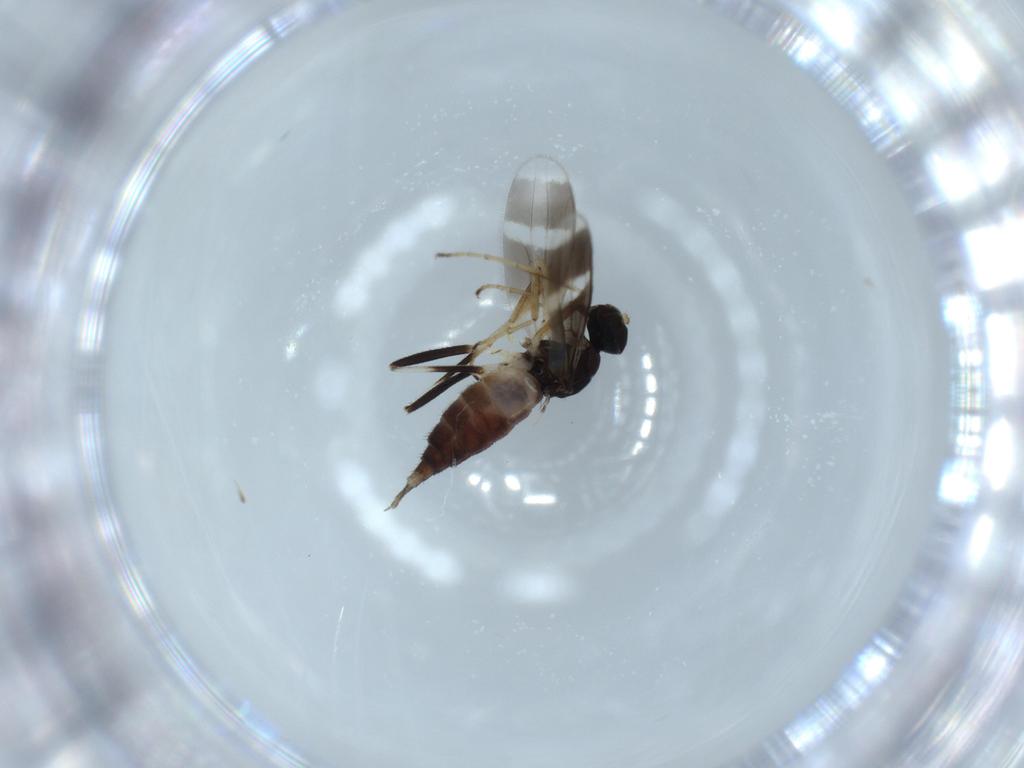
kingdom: Animalia
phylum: Arthropoda
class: Insecta
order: Diptera
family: Hybotidae
